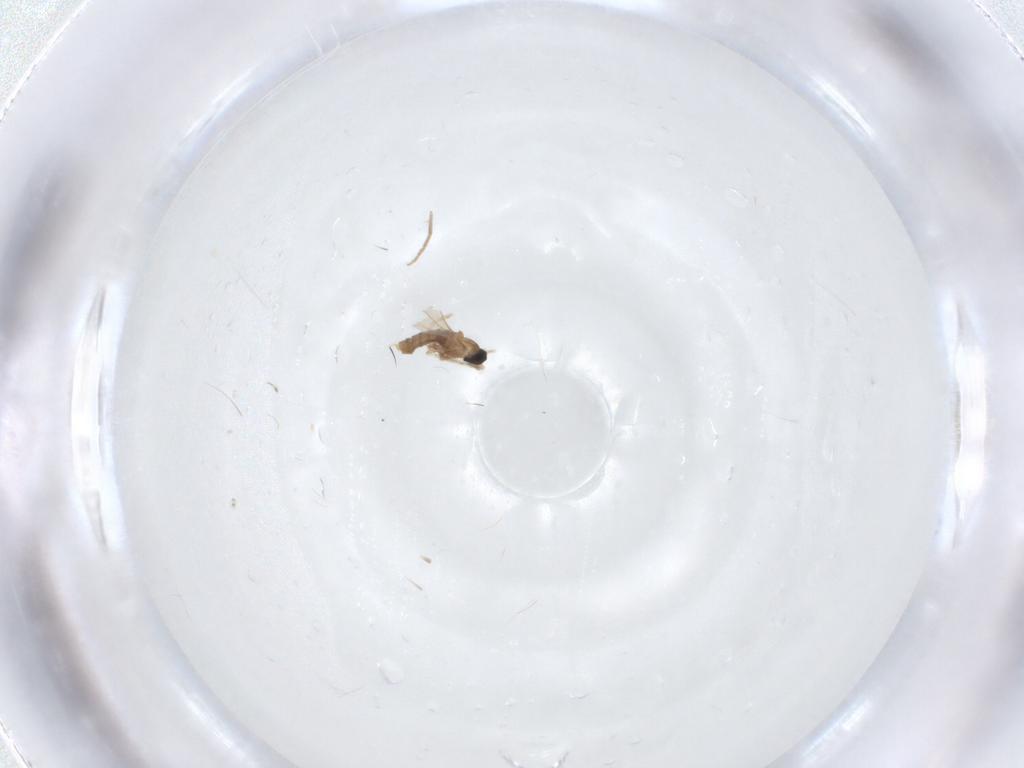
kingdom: Animalia
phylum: Arthropoda
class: Insecta
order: Diptera
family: Cecidomyiidae
